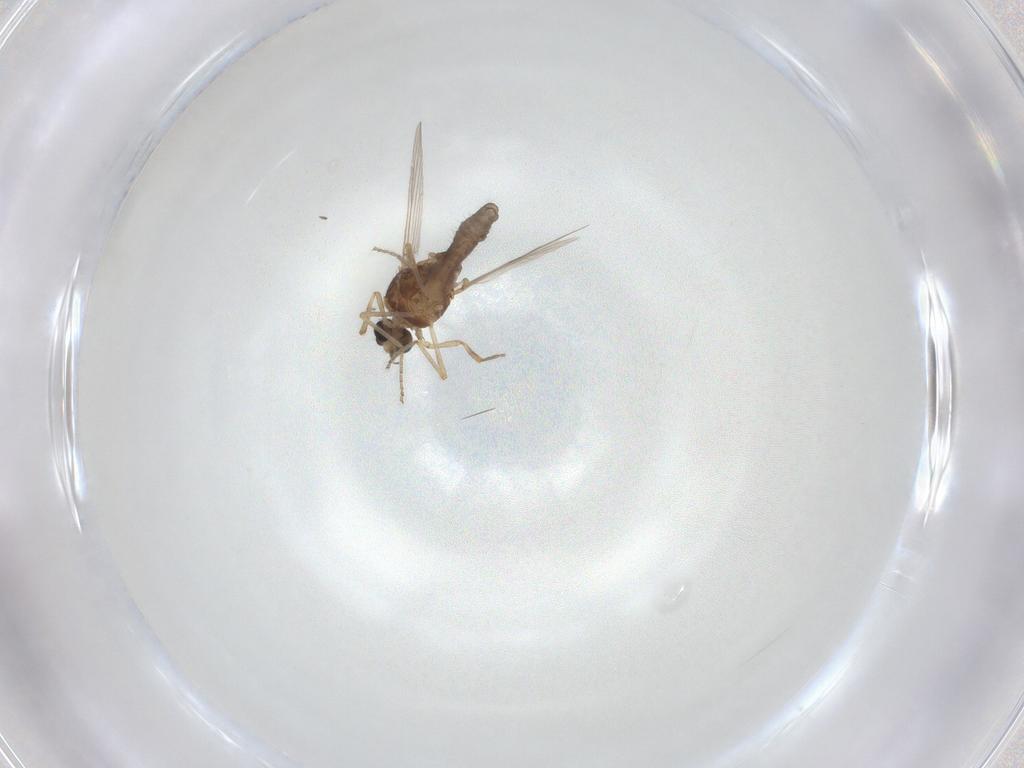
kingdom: Animalia
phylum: Arthropoda
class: Insecta
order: Diptera
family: Ceratopogonidae
